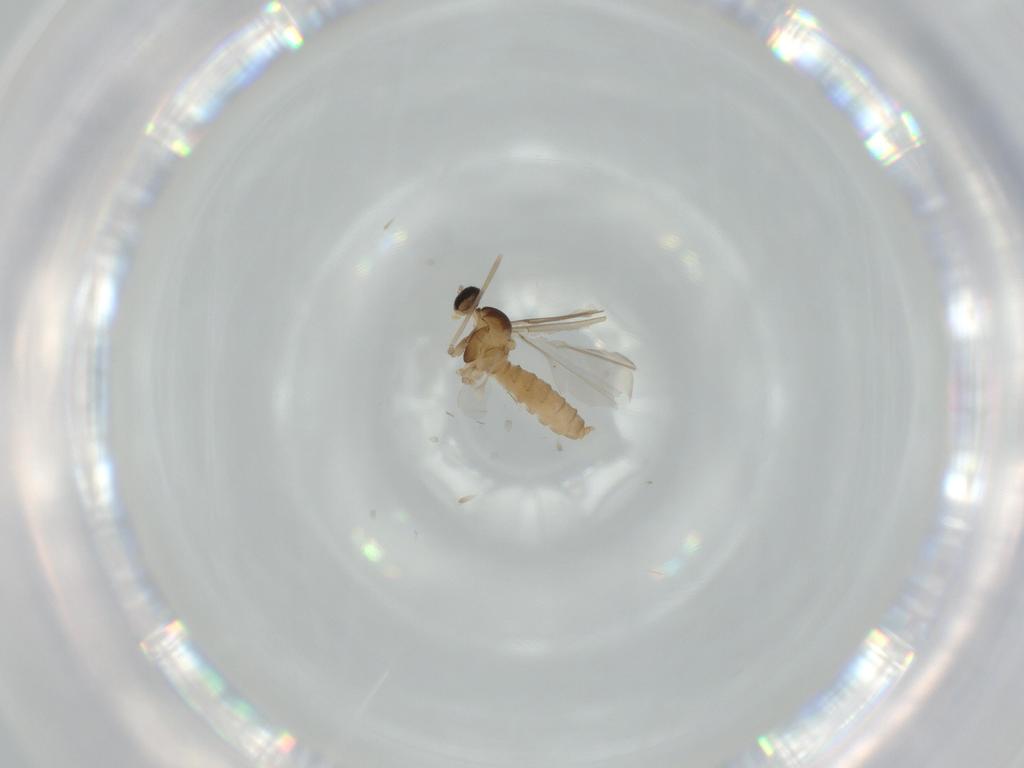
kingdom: Animalia
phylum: Arthropoda
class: Insecta
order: Diptera
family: Cecidomyiidae
